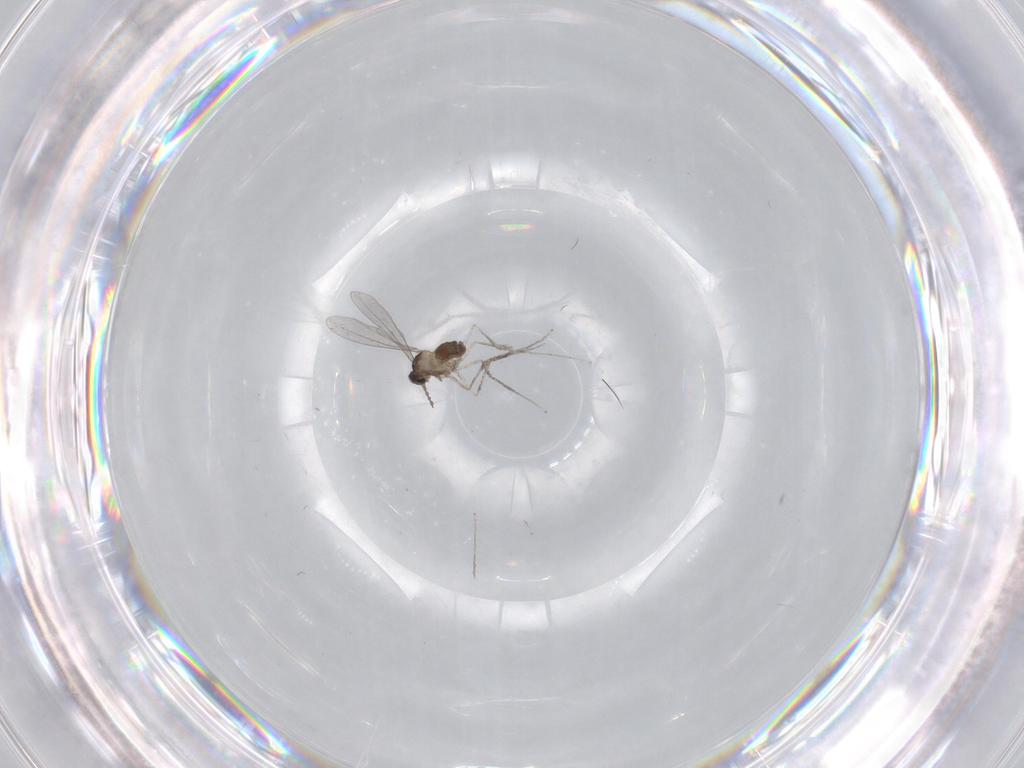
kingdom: Animalia
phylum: Arthropoda
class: Insecta
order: Diptera
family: Cecidomyiidae
